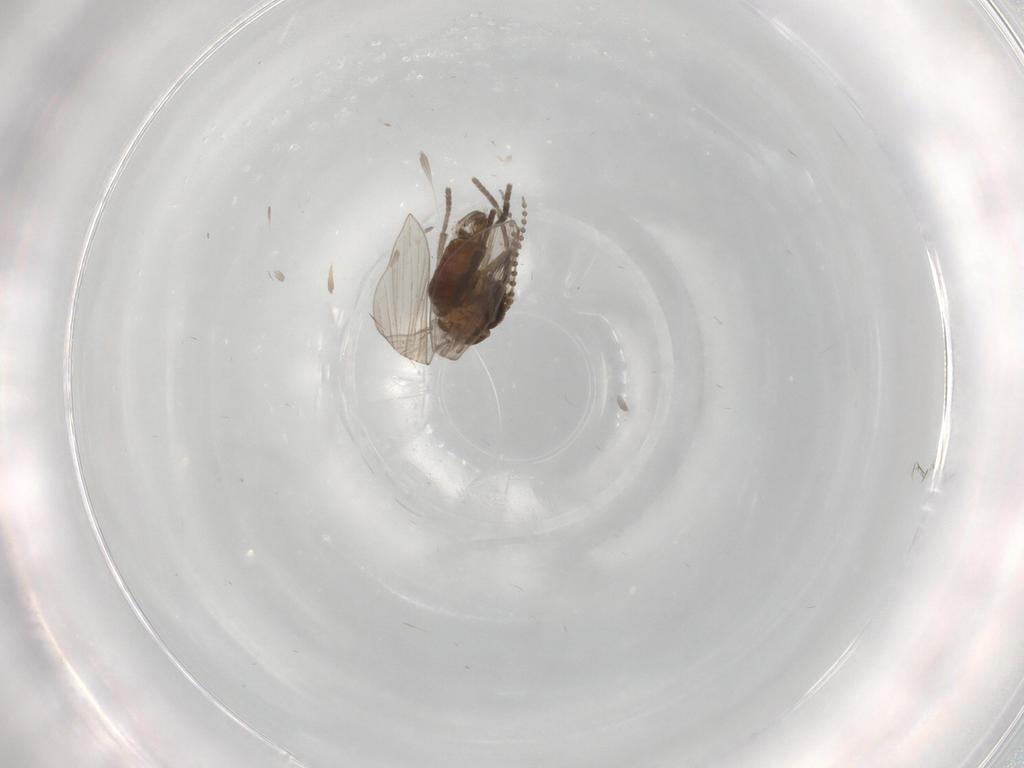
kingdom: Animalia
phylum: Arthropoda
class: Insecta
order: Diptera
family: Psychodidae
